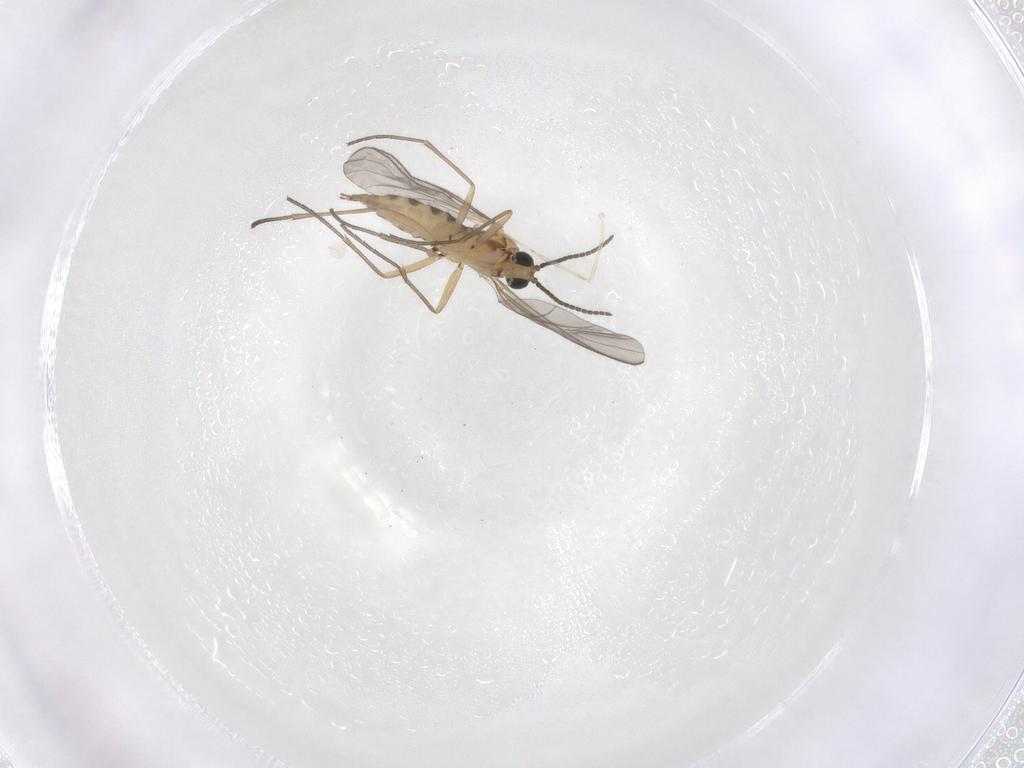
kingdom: Animalia
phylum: Arthropoda
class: Insecta
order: Diptera
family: Sciaridae
